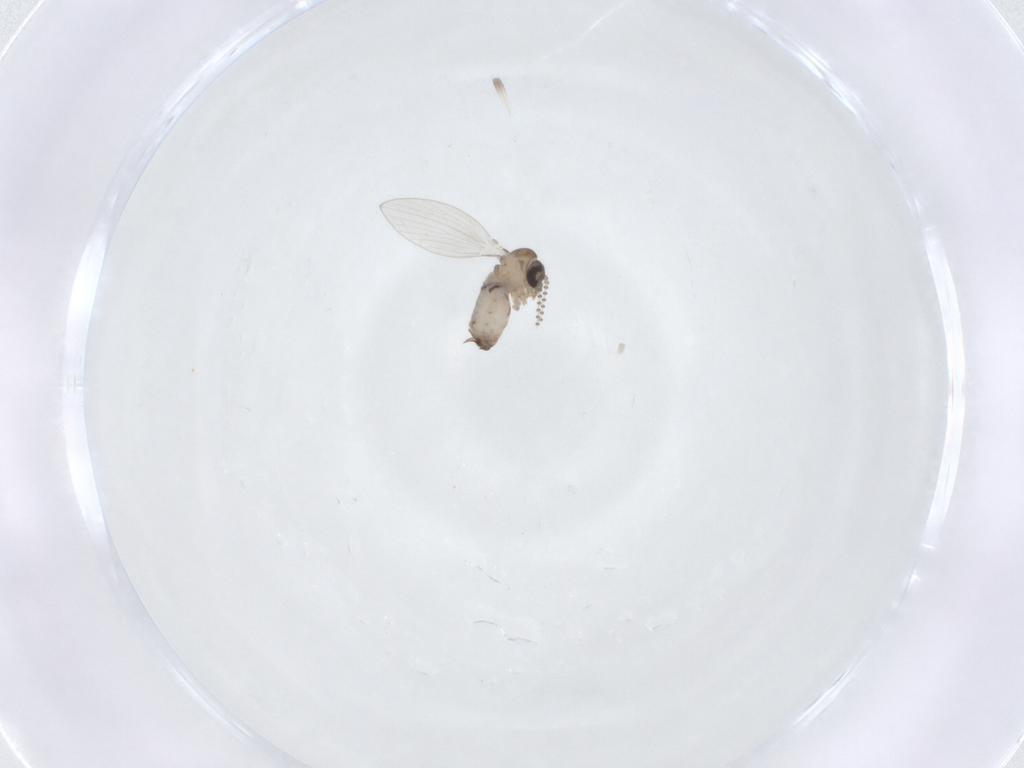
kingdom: Animalia
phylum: Arthropoda
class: Insecta
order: Diptera
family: Psychodidae
